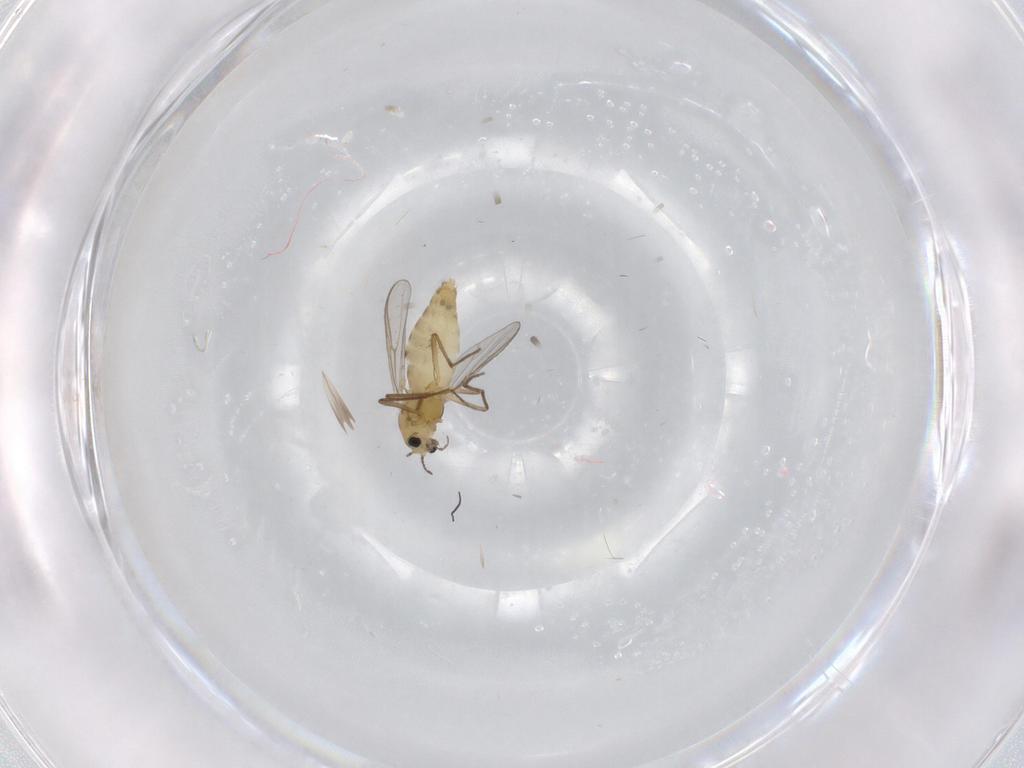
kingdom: Animalia
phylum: Arthropoda
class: Insecta
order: Diptera
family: Chironomidae
